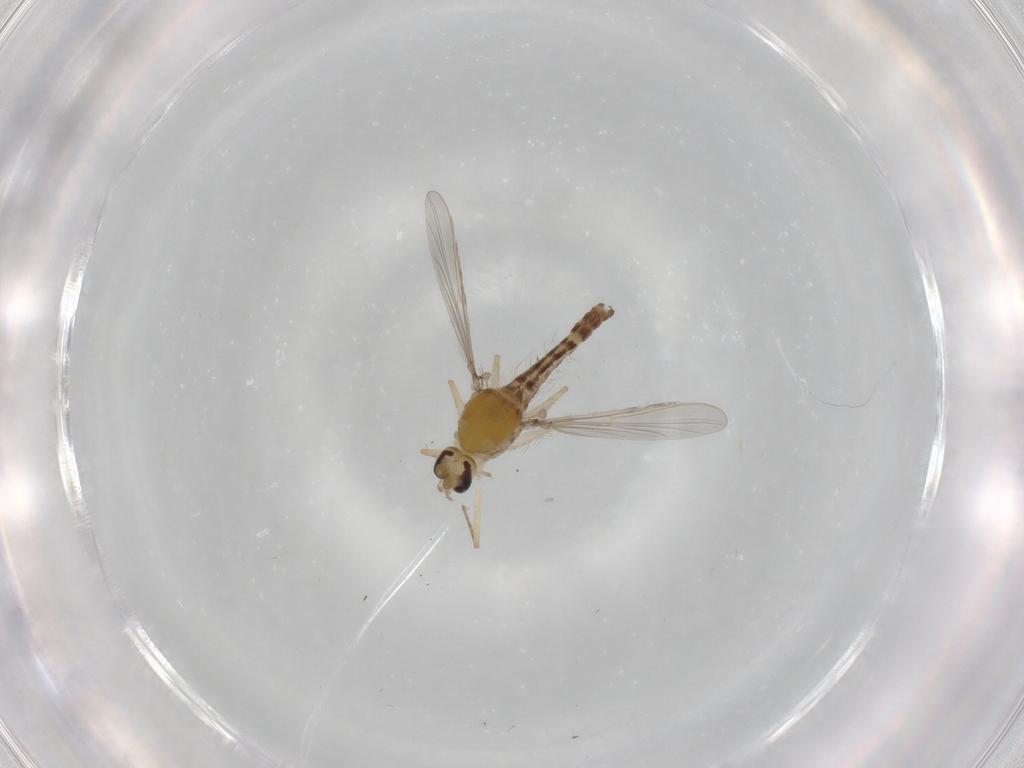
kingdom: Animalia
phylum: Arthropoda
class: Insecta
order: Diptera
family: Chironomidae
